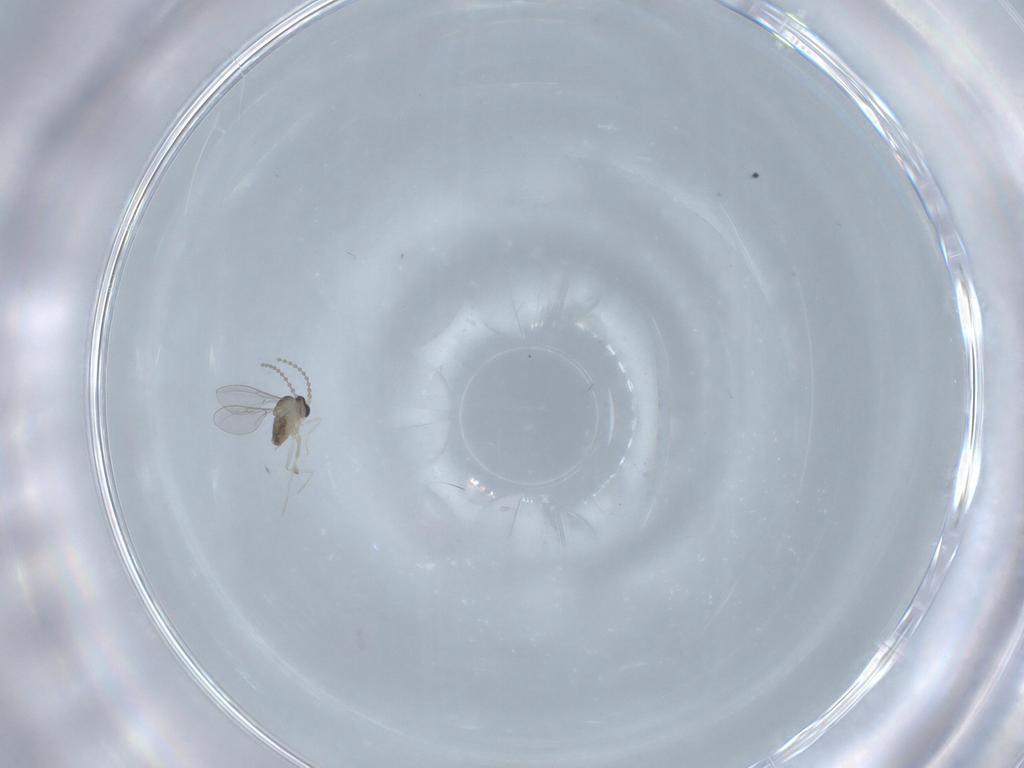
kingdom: Animalia
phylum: Arthropoda
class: Insecta
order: Diptera
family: Cecidomyiidae
